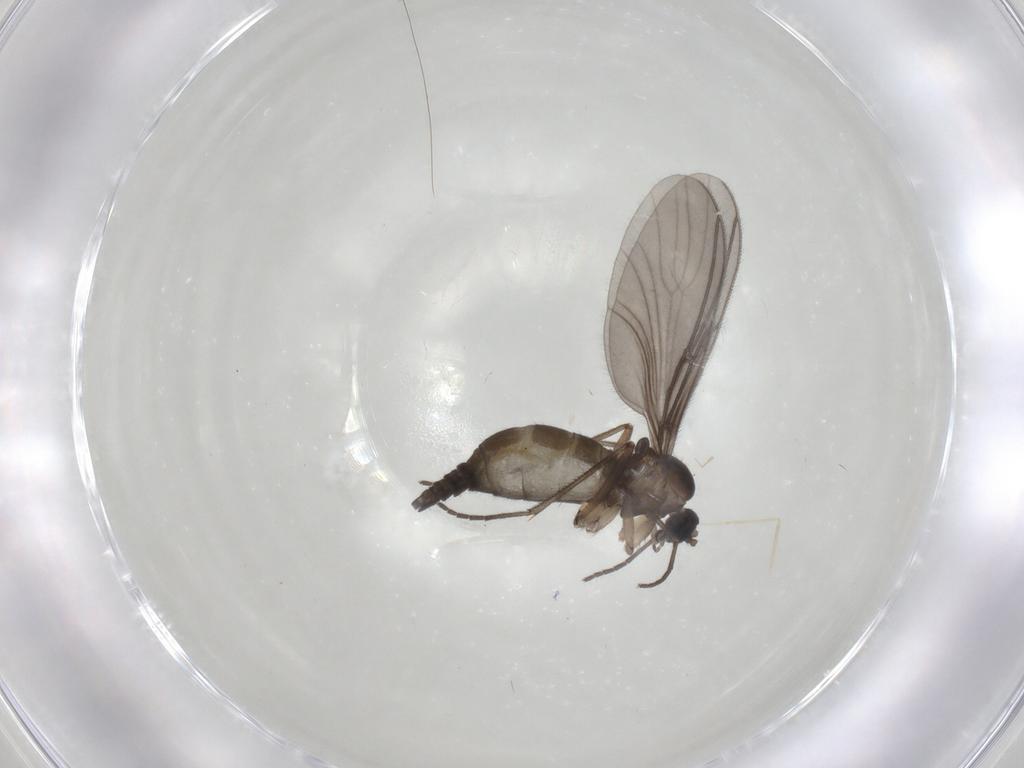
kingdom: Animalia
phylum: Arthropoda
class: Insecta
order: Diptera
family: Sciaridae
